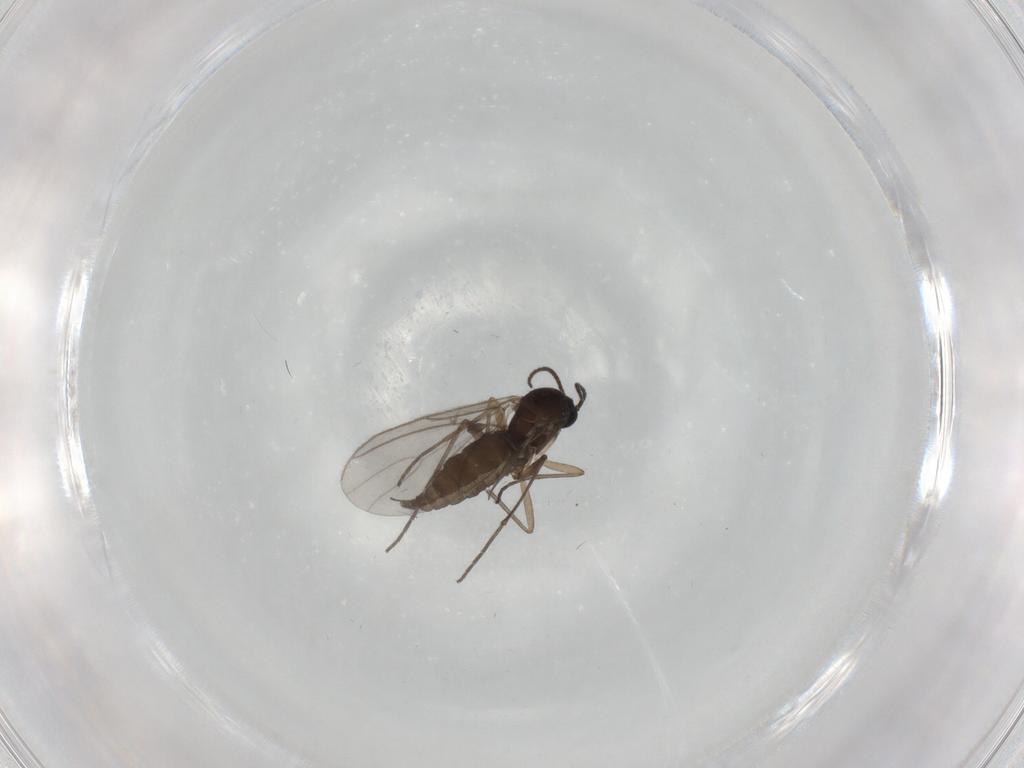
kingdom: Animalia
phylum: Arthropoda
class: Insecta
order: Diptera
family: Sciaridae
